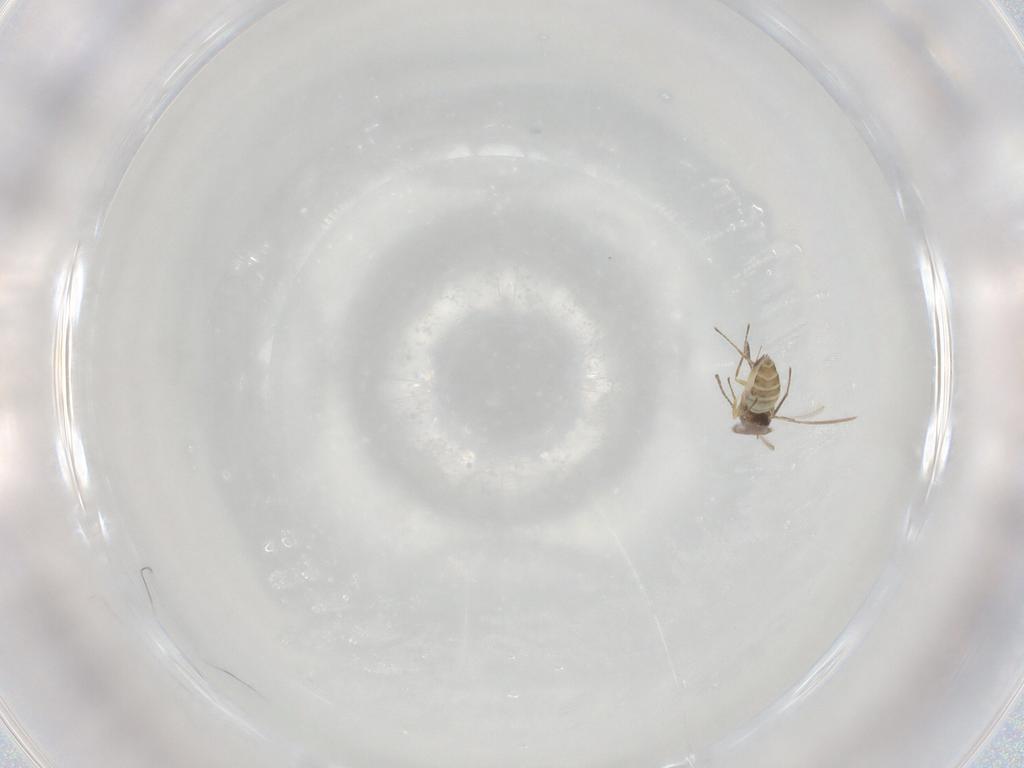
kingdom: Animalia
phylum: Arthropoda
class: Insecta
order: Hymenoptera
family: Mymaridae
